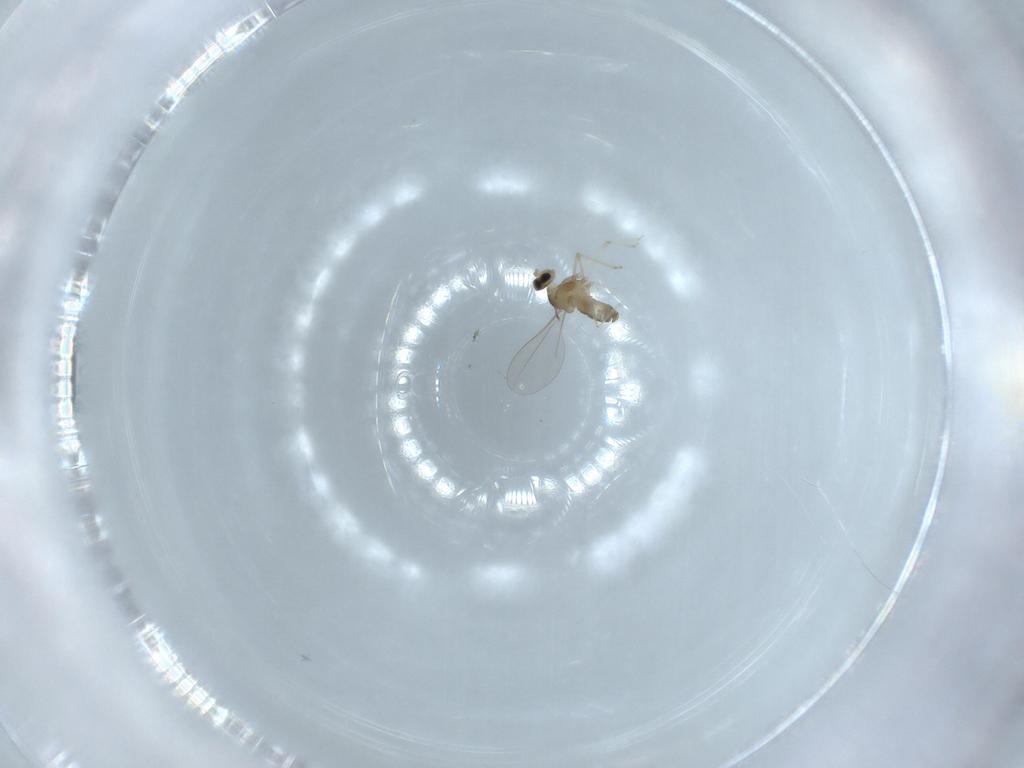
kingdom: Animalia
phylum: Arthropoda
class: Insecta
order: Diptera
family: Cecidomyiidae
